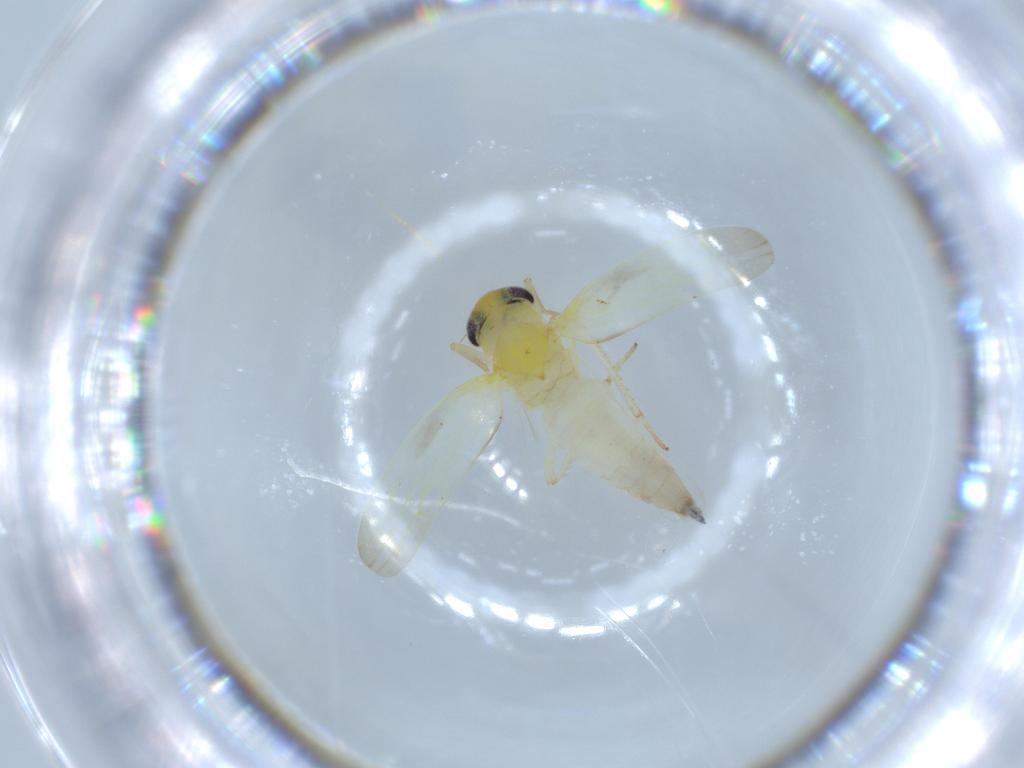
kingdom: Animalia
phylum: Arthropoda
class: Insecta
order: Hemiptera
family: Cicadellidae
